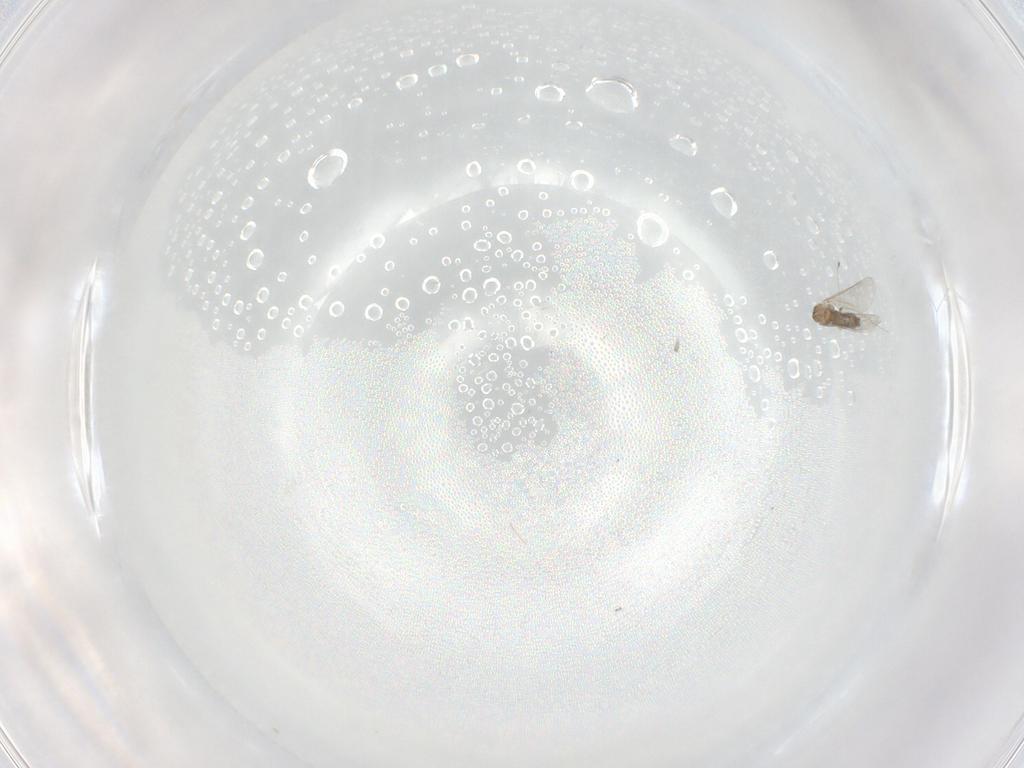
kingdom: Animalia
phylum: Arthropoda
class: Insecta
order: Diptera
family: Cecidomyiidae
